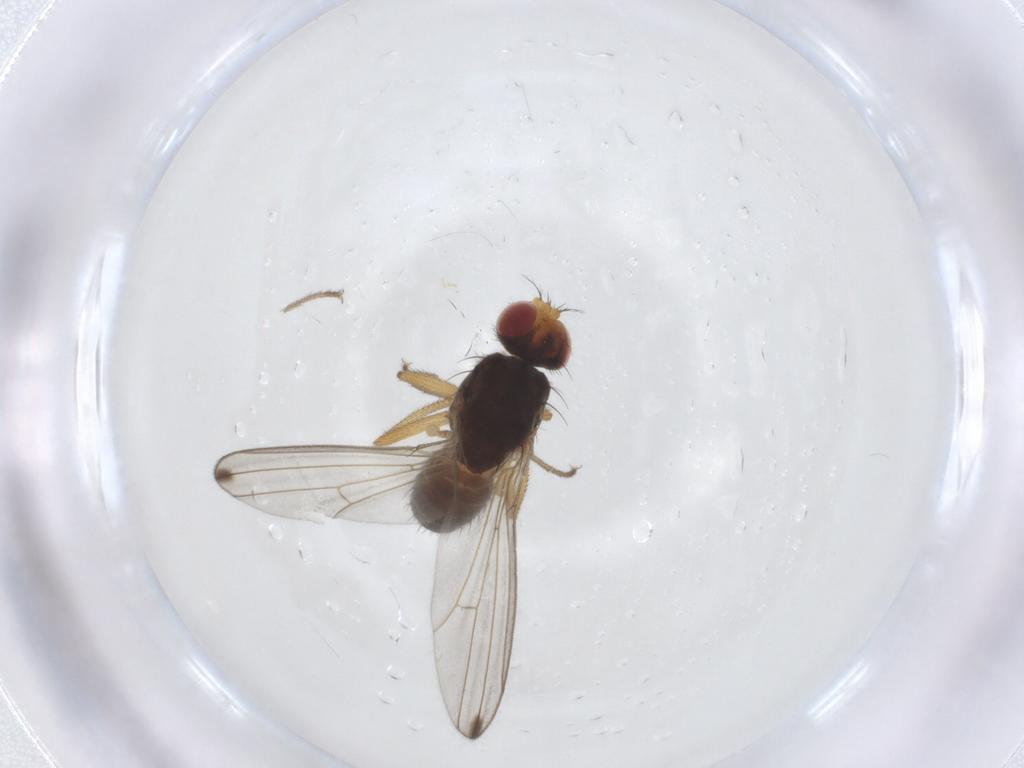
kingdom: Animalia
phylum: Arthropoda
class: Insecta
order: Diptera
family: Drosophilidae
